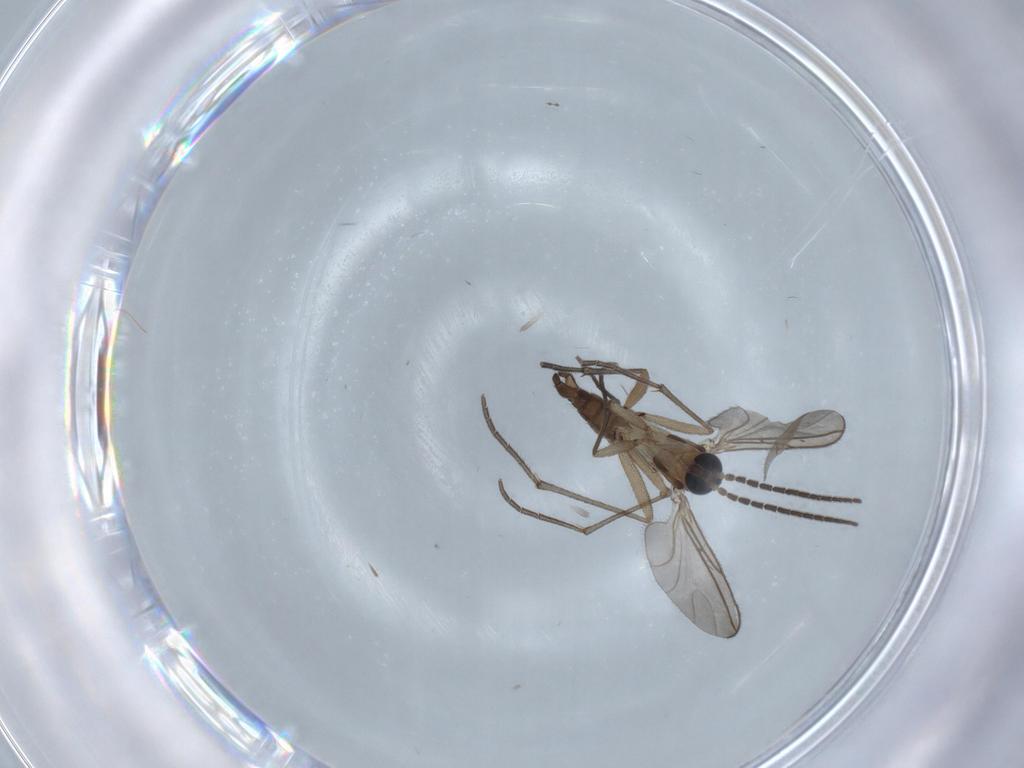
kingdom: Animalia
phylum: Arthropoda
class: Insecta
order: Diptera
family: Sciaridae
